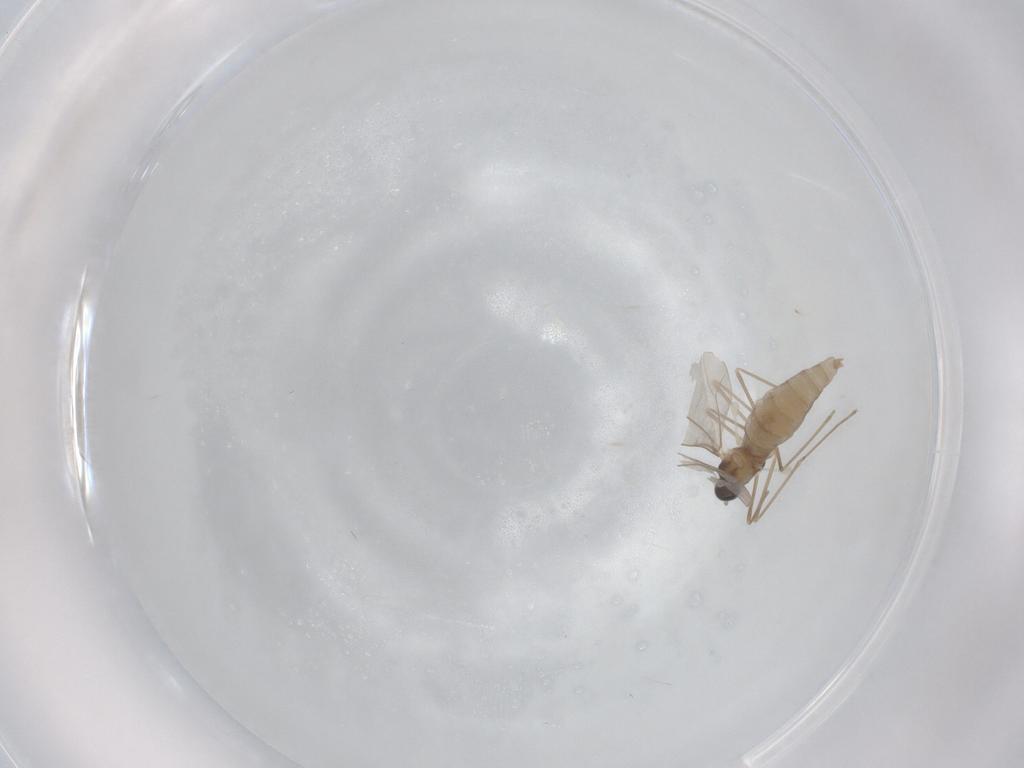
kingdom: Animalia
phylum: Arthropoda
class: Insecta
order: Diptera
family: Cecidomyiidae
